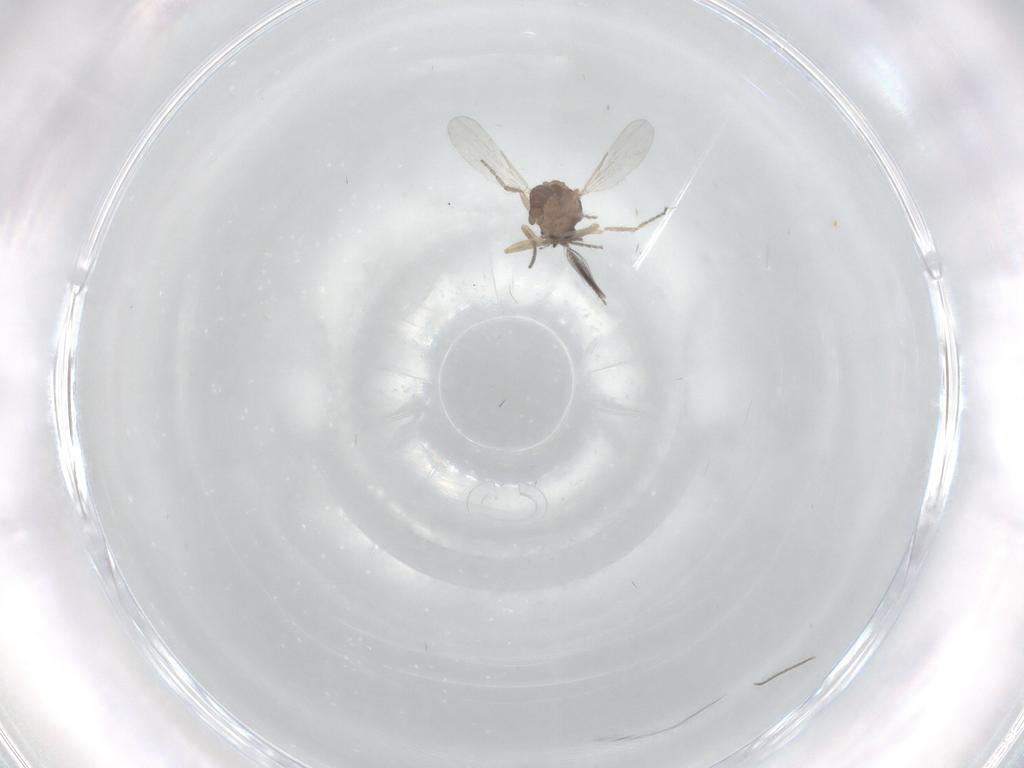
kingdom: Animalia
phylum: Arthropoda
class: Insecta
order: Diptera
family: Ceratopogonidae
